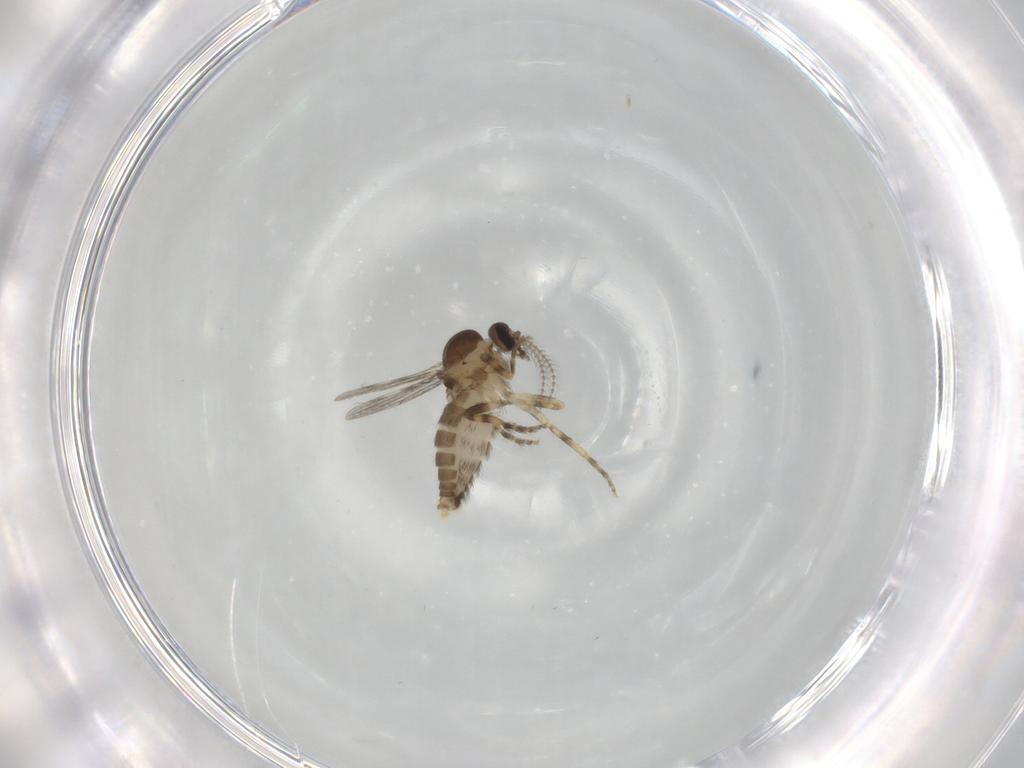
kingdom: Animalia
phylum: Arthropoda
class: Insecta
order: Diptera
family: Ceratopogonidae
